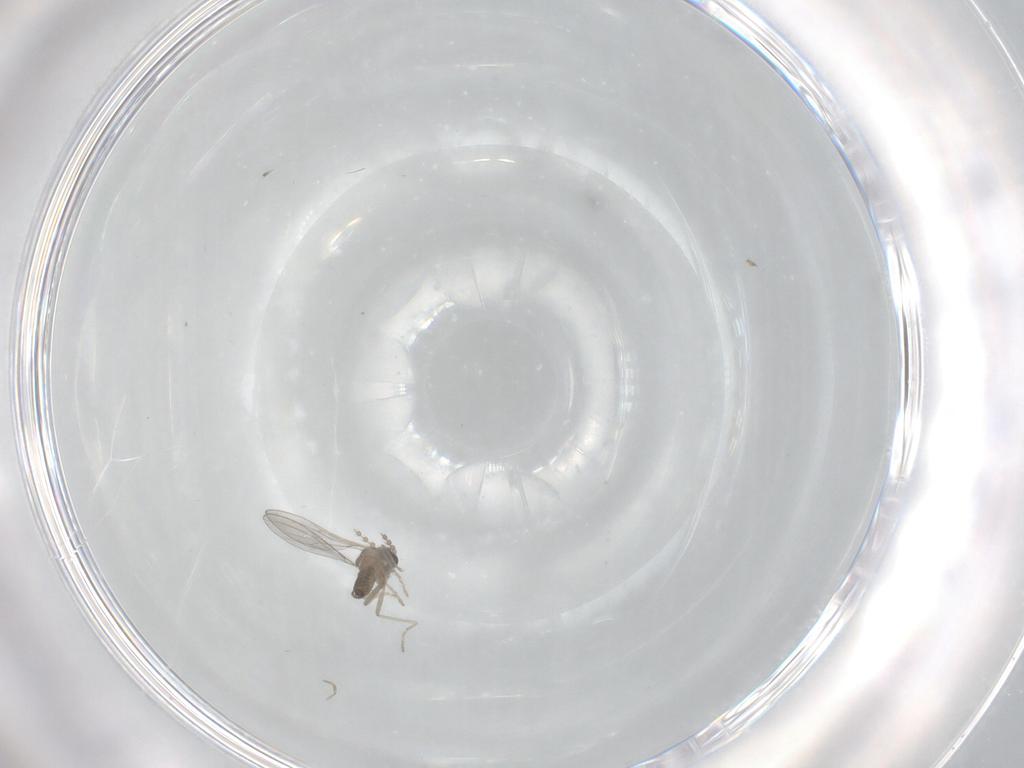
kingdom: Animalia
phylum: Arthropoda
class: Insecta
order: Diptera
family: Cecidomyiidae
